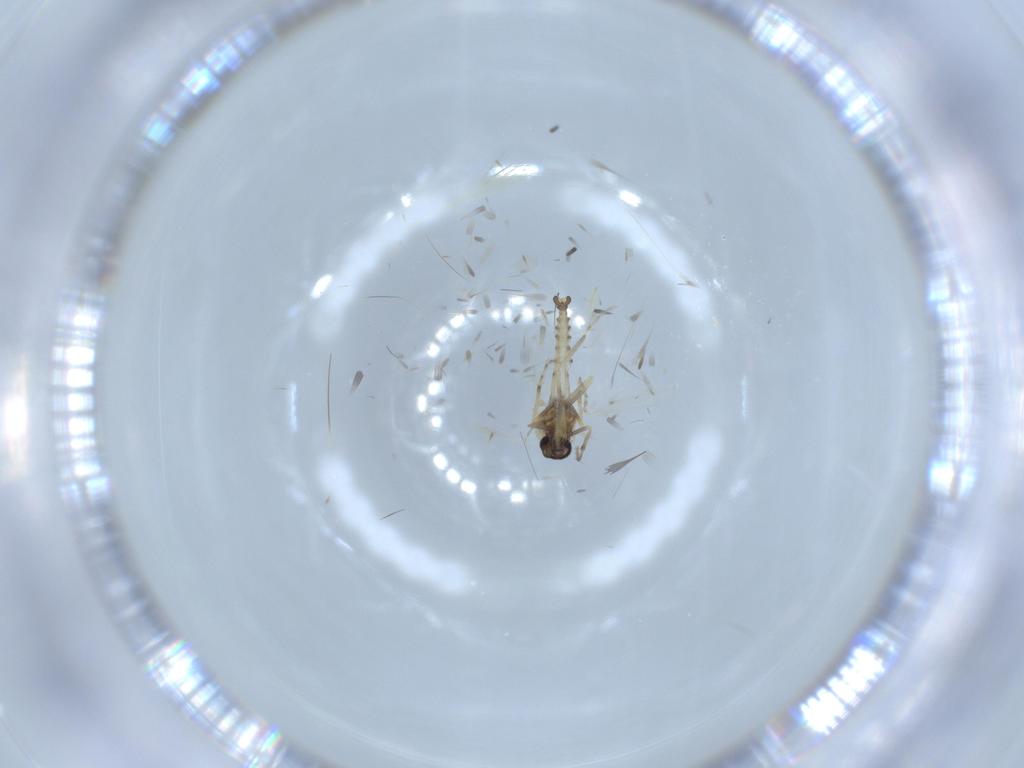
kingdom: Animalia
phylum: Arthropoda
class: Insecta
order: Diptera
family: Ceratopogonidae
